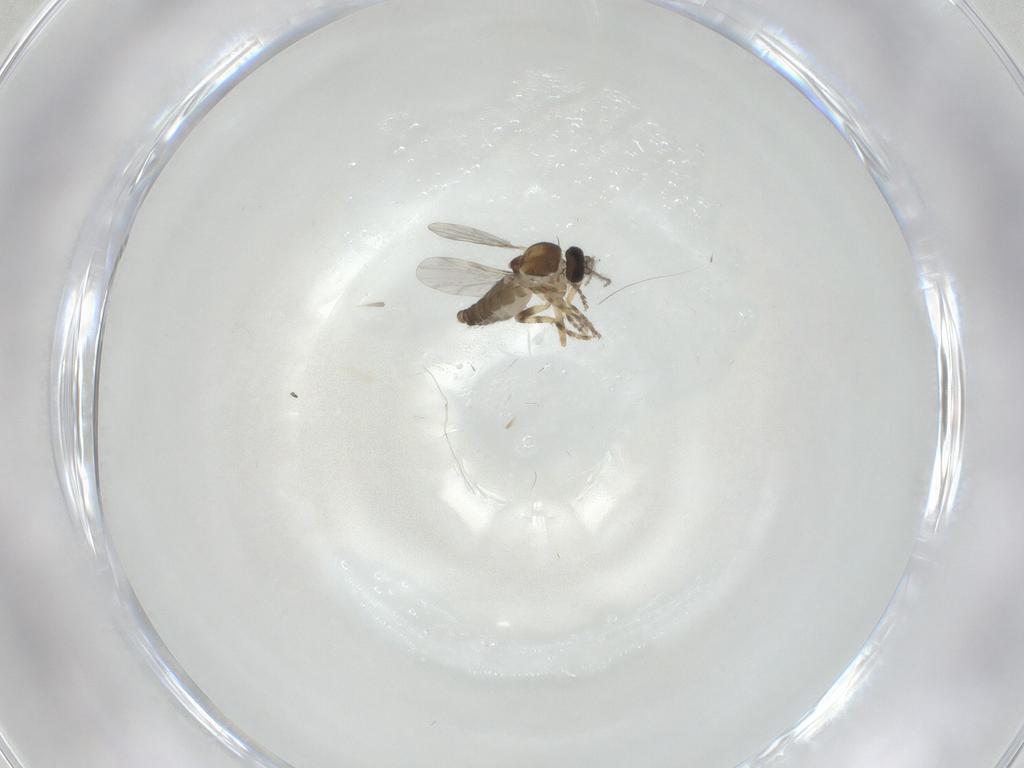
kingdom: Animalia
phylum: Arthropoda
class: Insecta
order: Diptera
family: Ceratopogonidae
